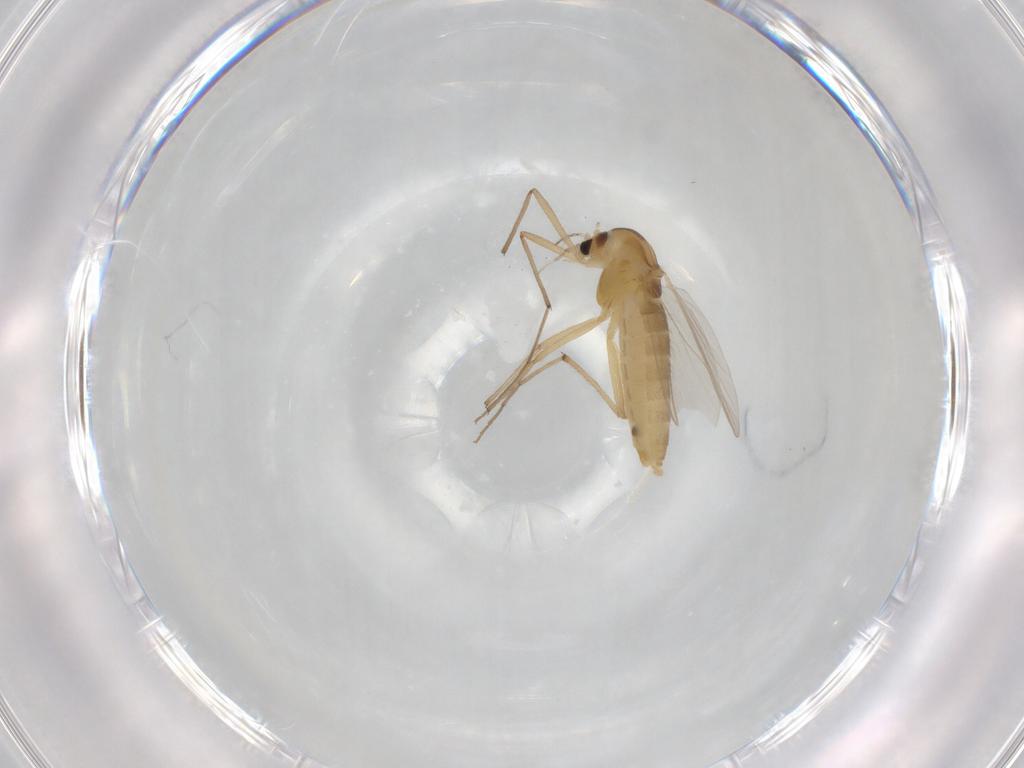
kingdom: Animalia
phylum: Arthropoda
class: Insecta
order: Diptera
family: Chironomidae
